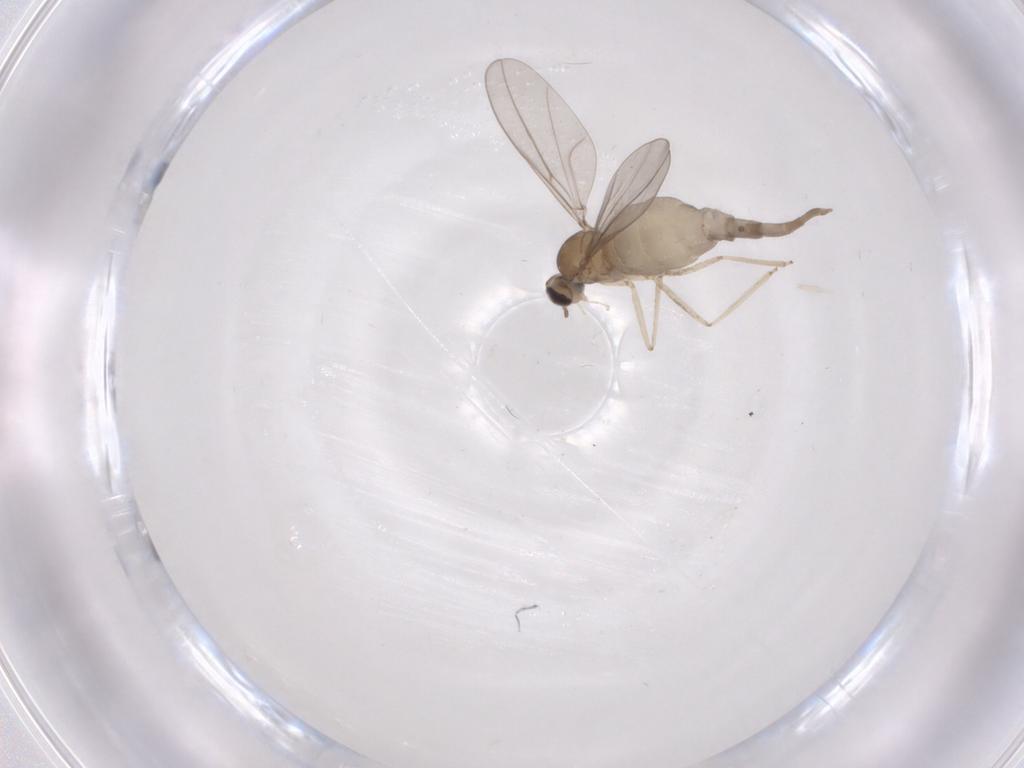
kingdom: Animalia
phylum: Arthropoda
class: Insecta
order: Diptera
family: Cecidomyiidae
